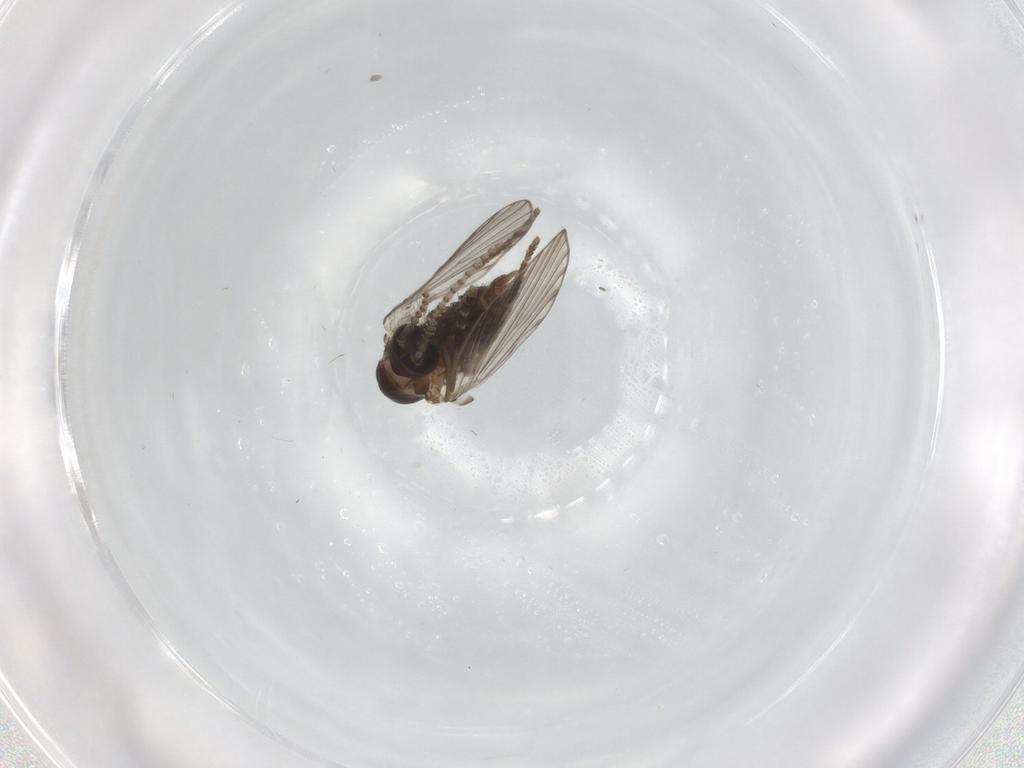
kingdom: Animalia
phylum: Arthropoda
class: Insecta
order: Diptera
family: Psychodidae
